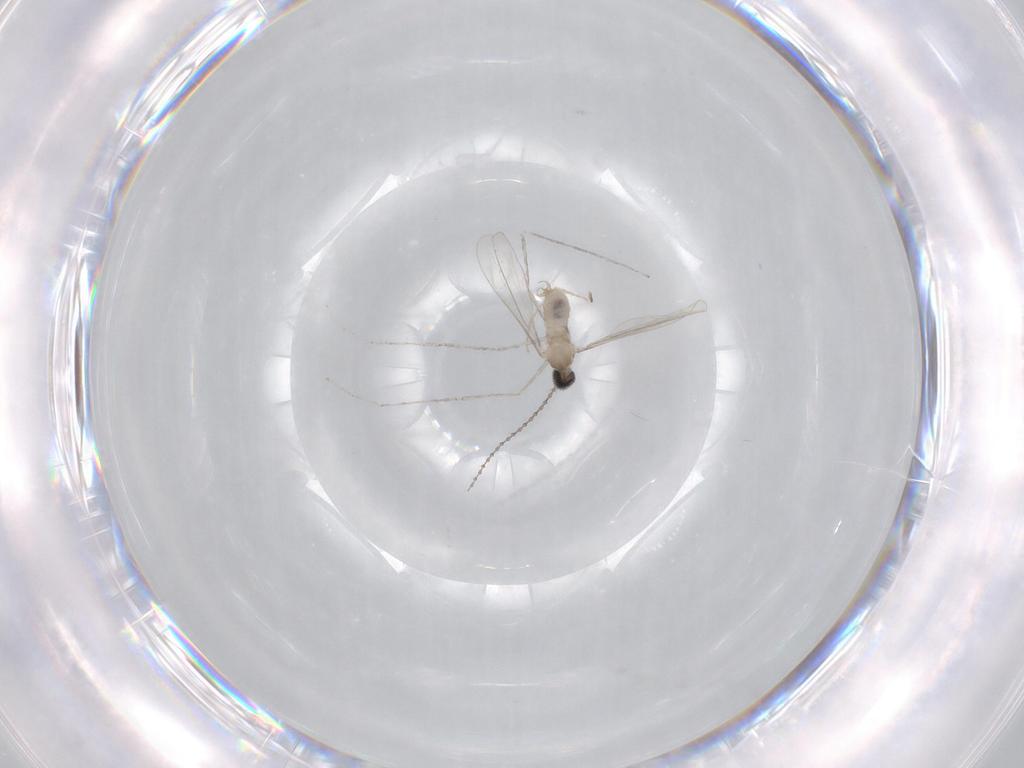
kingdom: Animalia
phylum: Arthropoda
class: Insecta
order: Diptera
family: Cecidomyiidae
